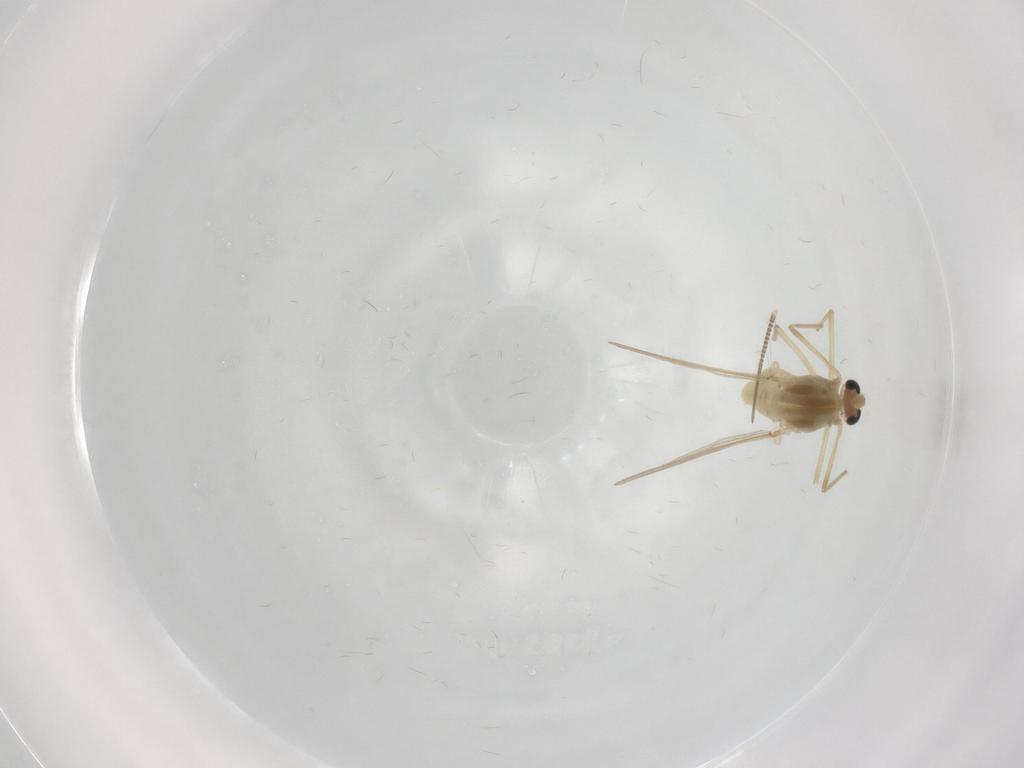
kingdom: Animalia
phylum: Arthropoda
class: Insecta
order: Diptera
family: Chironomidae
